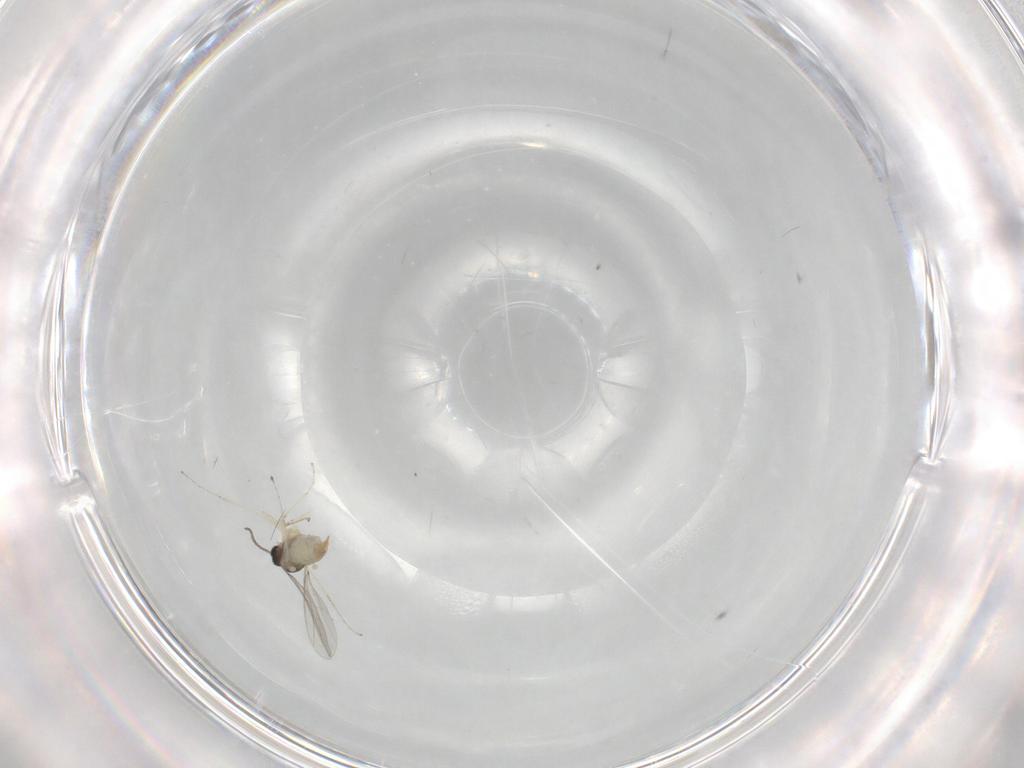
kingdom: Animalia
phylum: Arthropoda
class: Insecta
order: Diptera
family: Cecidomyiidae
